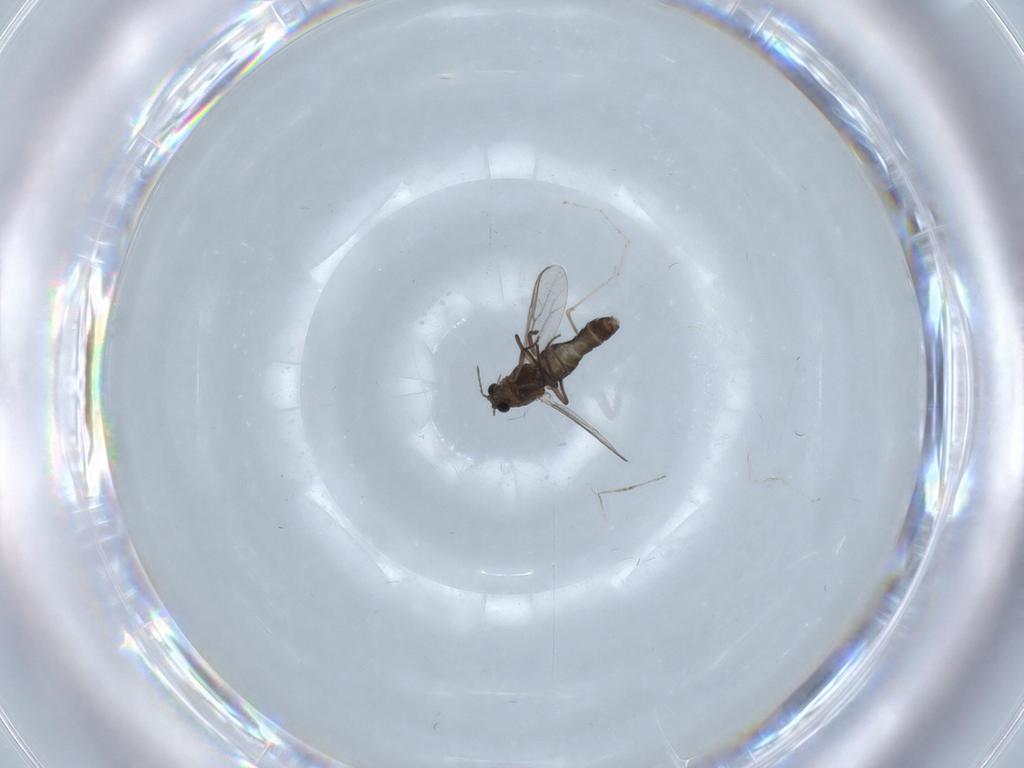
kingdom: Animalia
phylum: Arthropoda
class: Insecta
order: Diptera
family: Chironomidae
